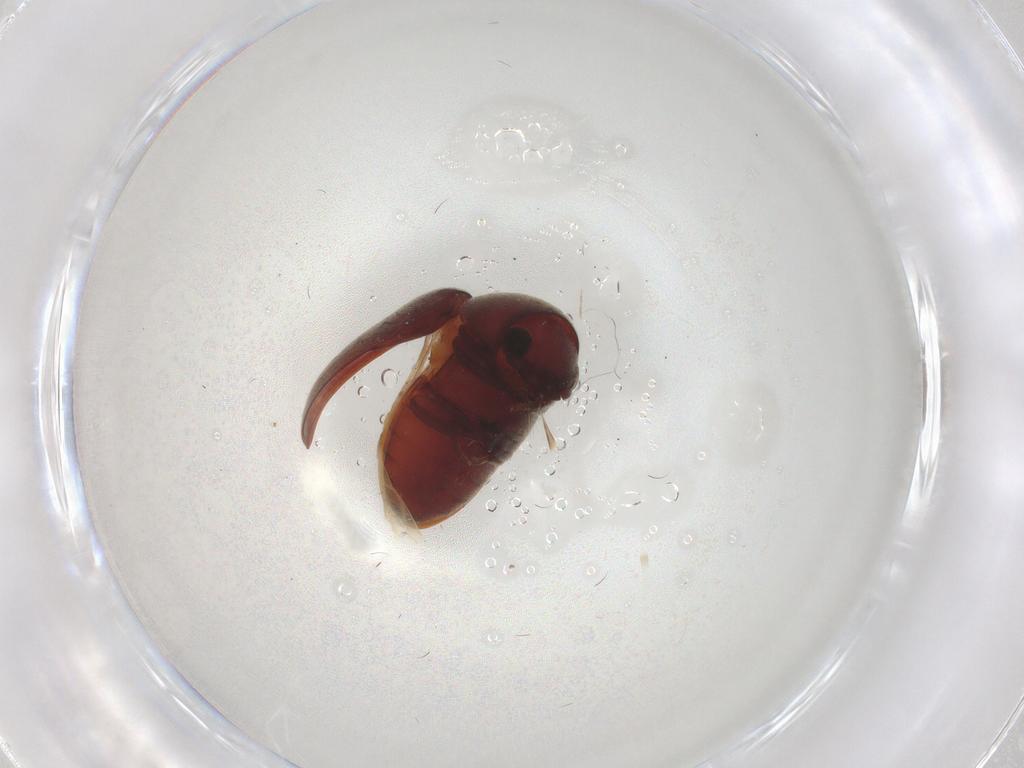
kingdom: Animalia
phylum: Arthropoda
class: Insecta
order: Coleoptera
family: Ptinidae
